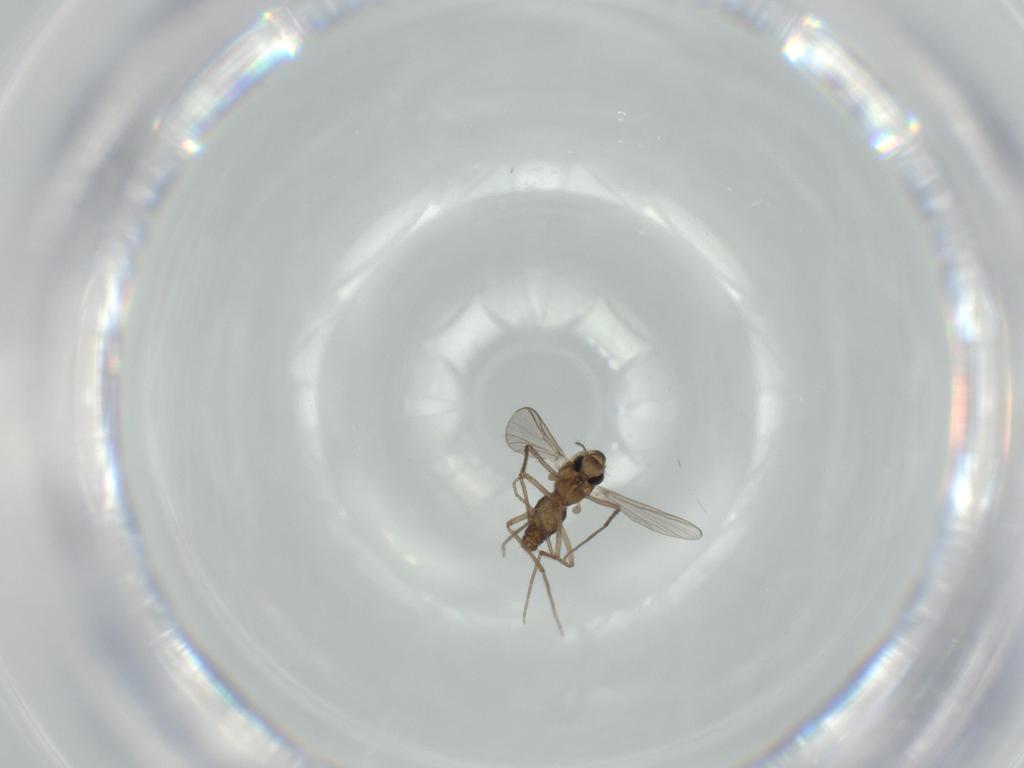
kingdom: Animalia
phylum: Arthropoda
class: Insecta
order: Diptera
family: Chironomidae
